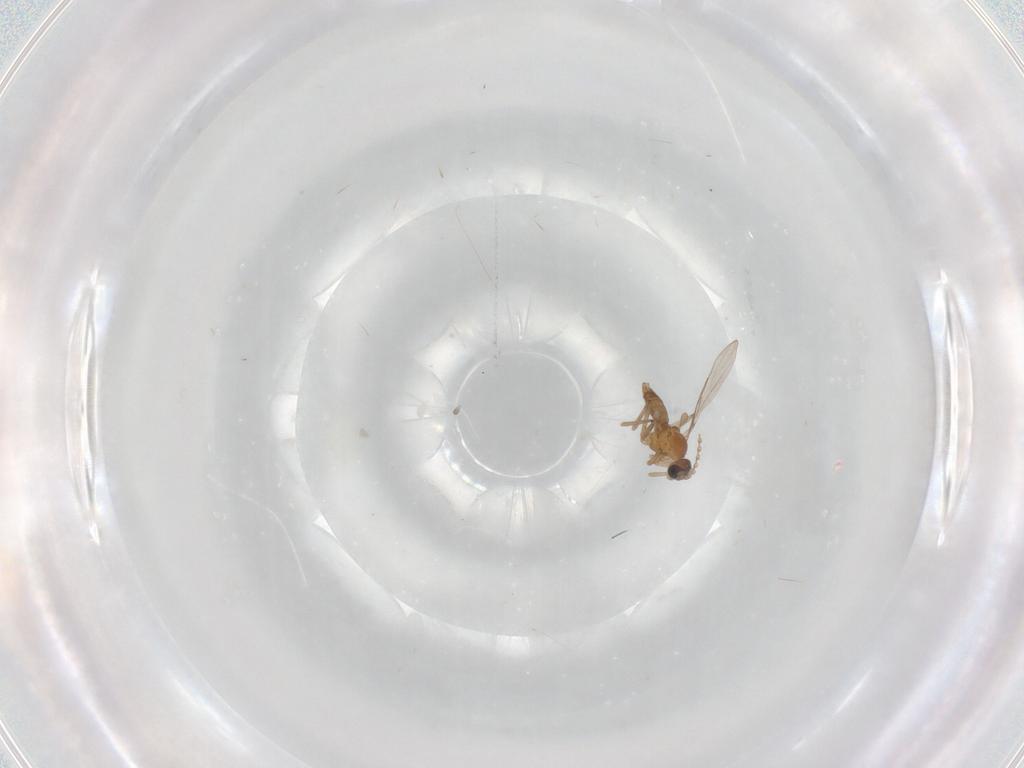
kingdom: Animalia
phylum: Arthropoda
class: Insecta
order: Diptera
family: Cecidomyiidae
